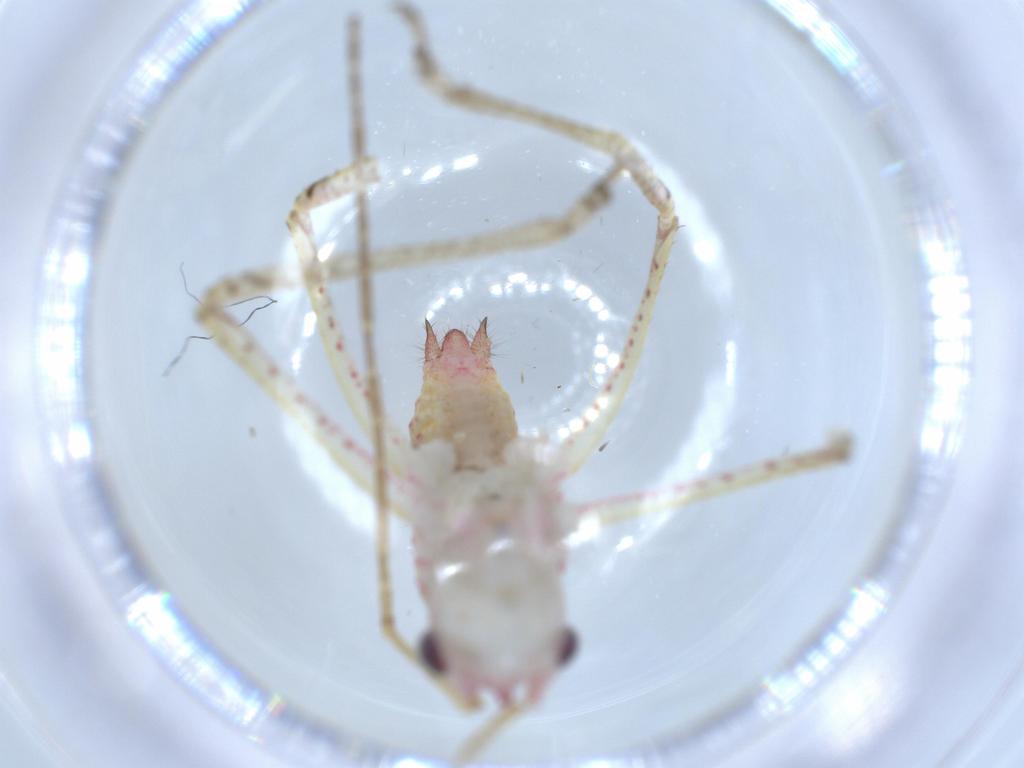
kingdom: Animalia
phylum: Arthropoda
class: Insecta
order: Orthoptera
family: Tettigoniidae
